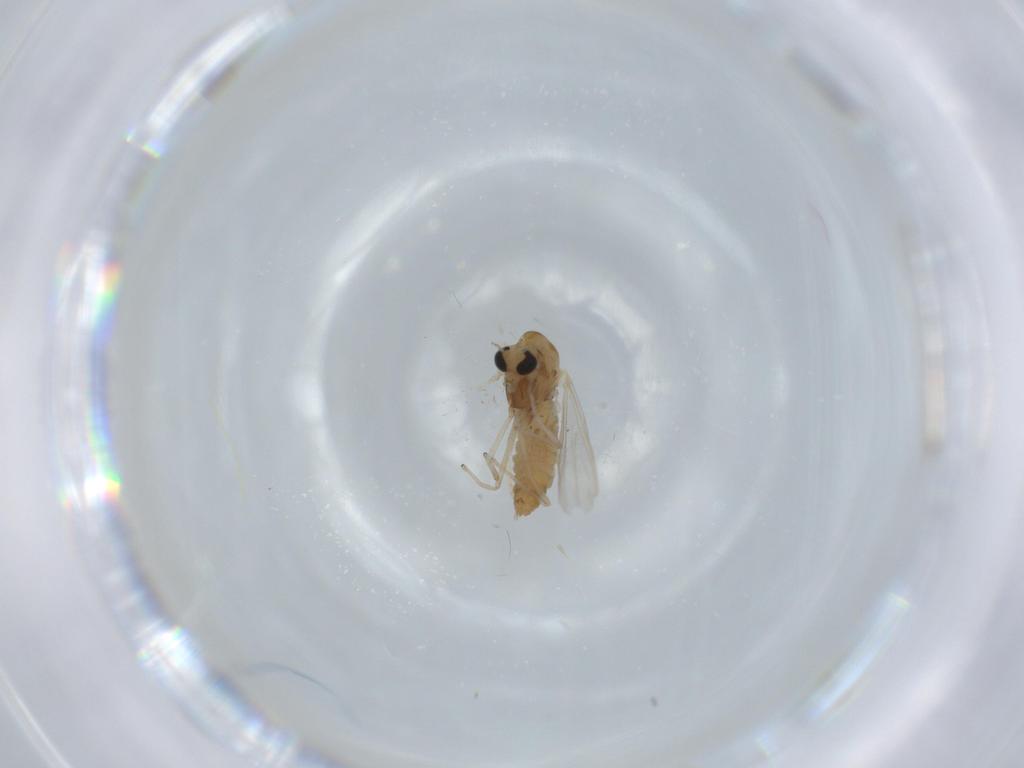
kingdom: Animalia
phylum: Arthropoda
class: Insecta
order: Diptera
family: Chironomidae
